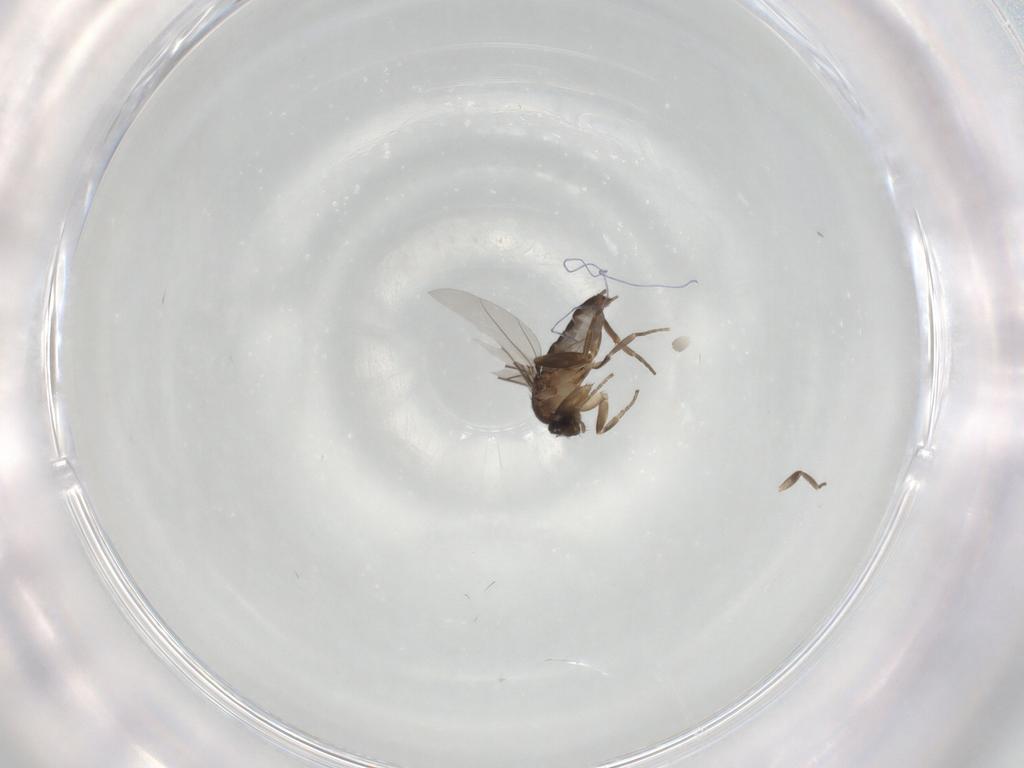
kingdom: Animalia
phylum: Arthropoda
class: Insecta
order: Diptera
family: Phoridae
